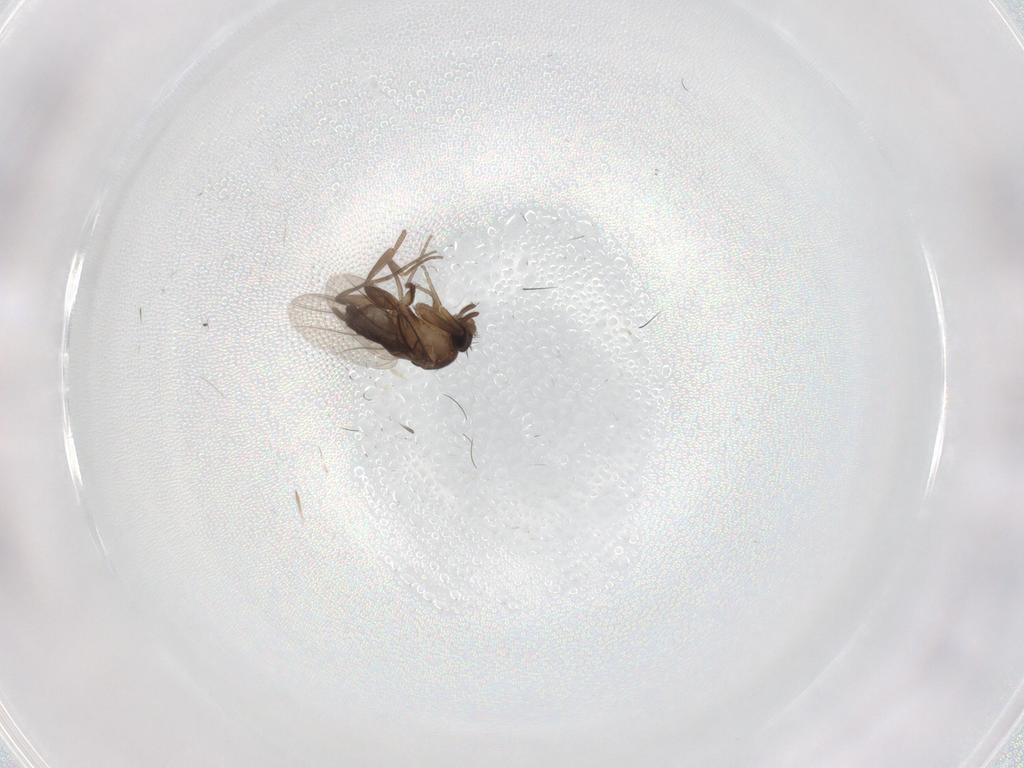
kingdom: Animalia
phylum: Arthropoda
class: Insecta
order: Diptera
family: Phoridae
